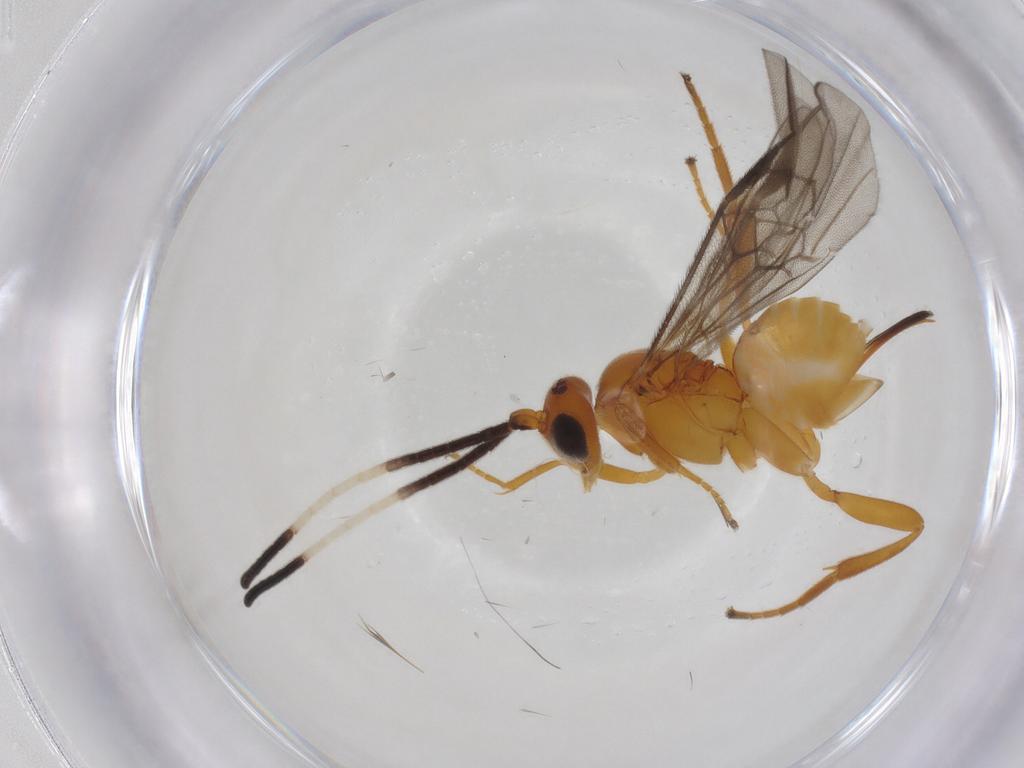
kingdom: Animalia
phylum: Arthropoda
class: Insecta
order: Hymenoptera
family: Braconidae
